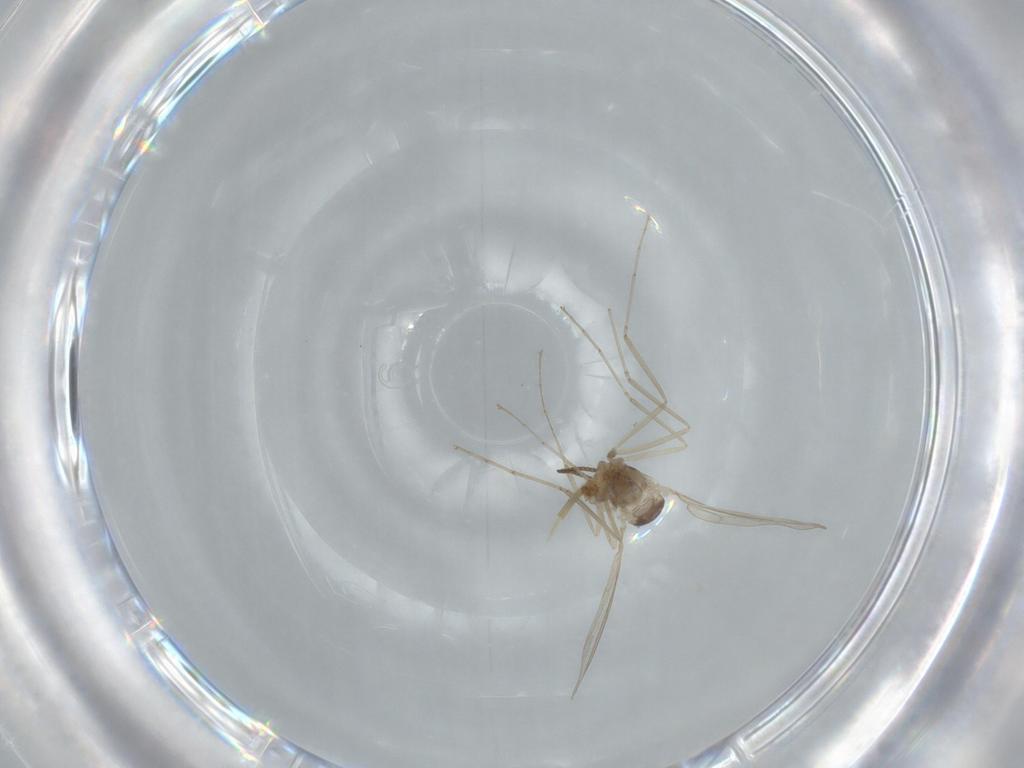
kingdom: Animalia
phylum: Arthropoda
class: Insecta
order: Diptera
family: Cecidomyiidae
